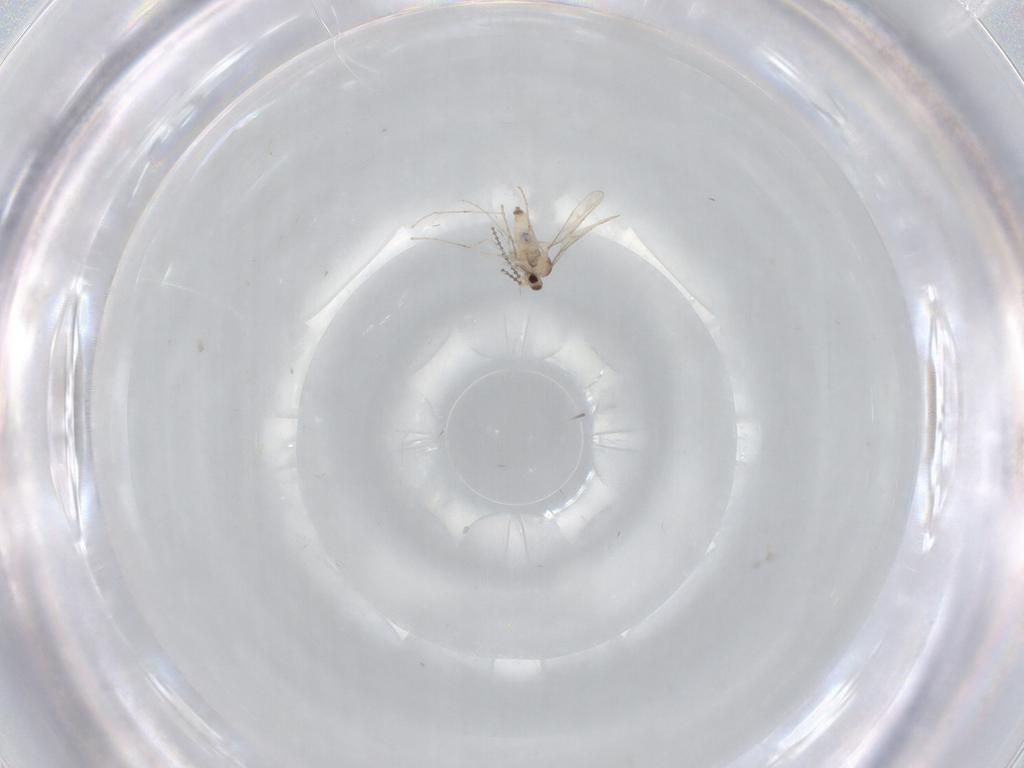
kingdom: Animalia
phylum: Arthropoda
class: Insecta
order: Diptera
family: Cecidomyiidae
